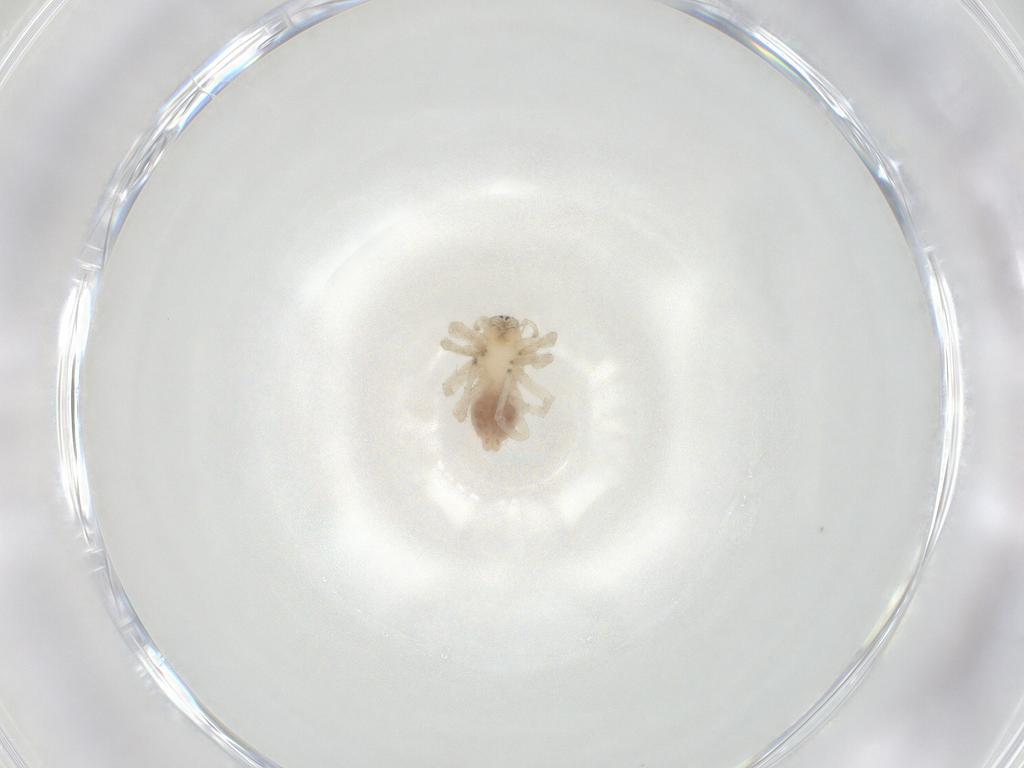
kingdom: Animalia
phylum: Arthropoda
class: Arachnida
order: Araneae
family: Clubionidae
